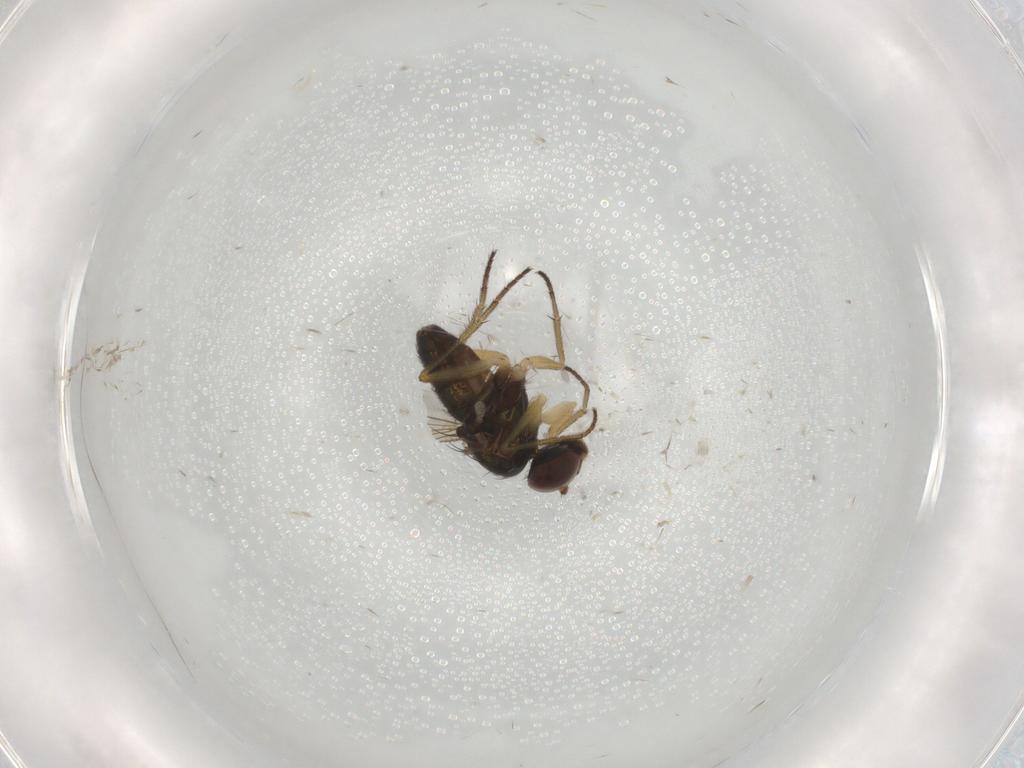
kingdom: Animalia
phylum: Arthropoda
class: Insecta
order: Diptera
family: Dolichopodidae
